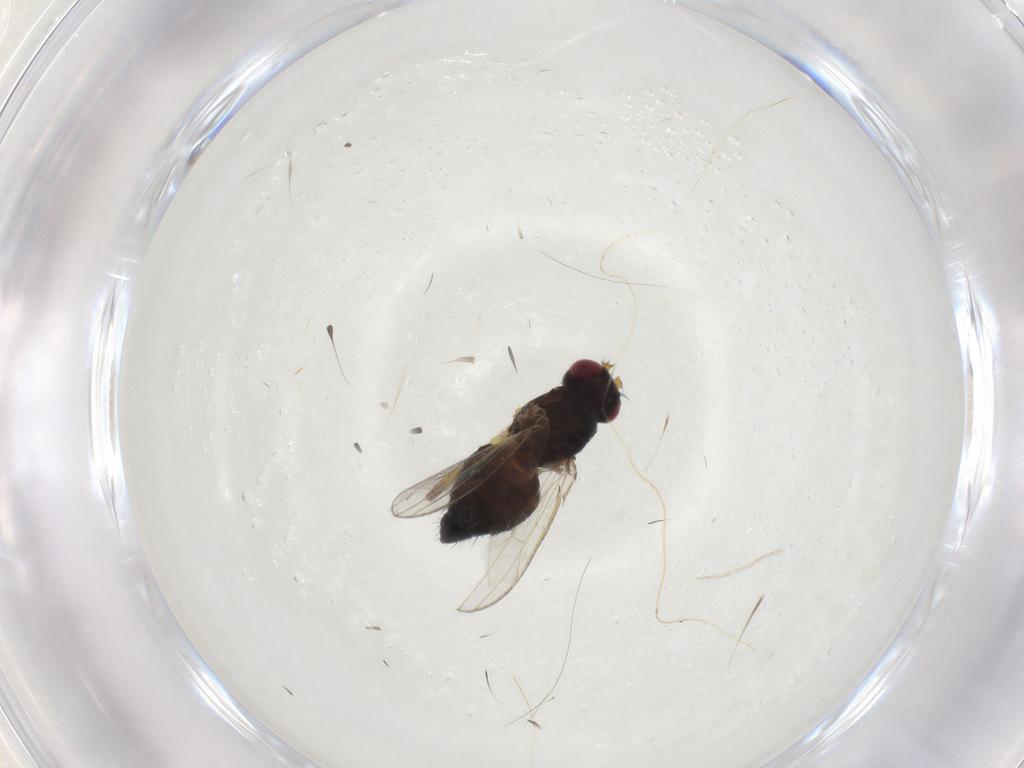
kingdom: Animalia
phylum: Arthropoda
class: Insecta
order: Diptera
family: Cypselosomatidae
